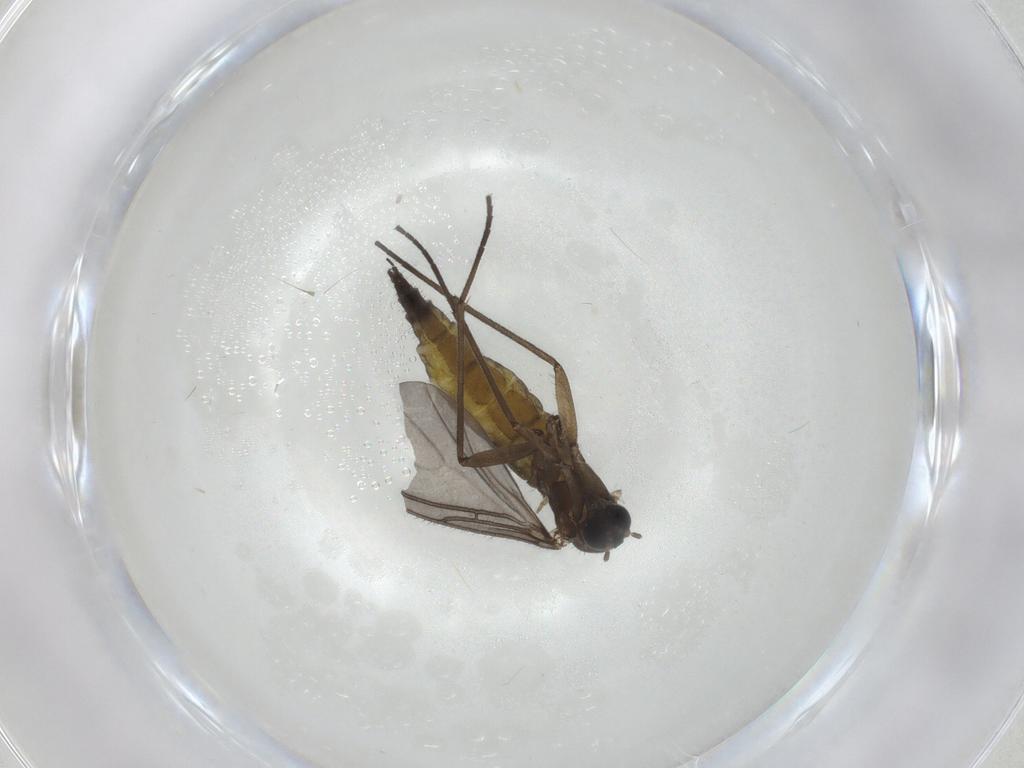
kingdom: Animalia
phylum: Arthropoda
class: Insecta
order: Diptera
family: Sciaridae
